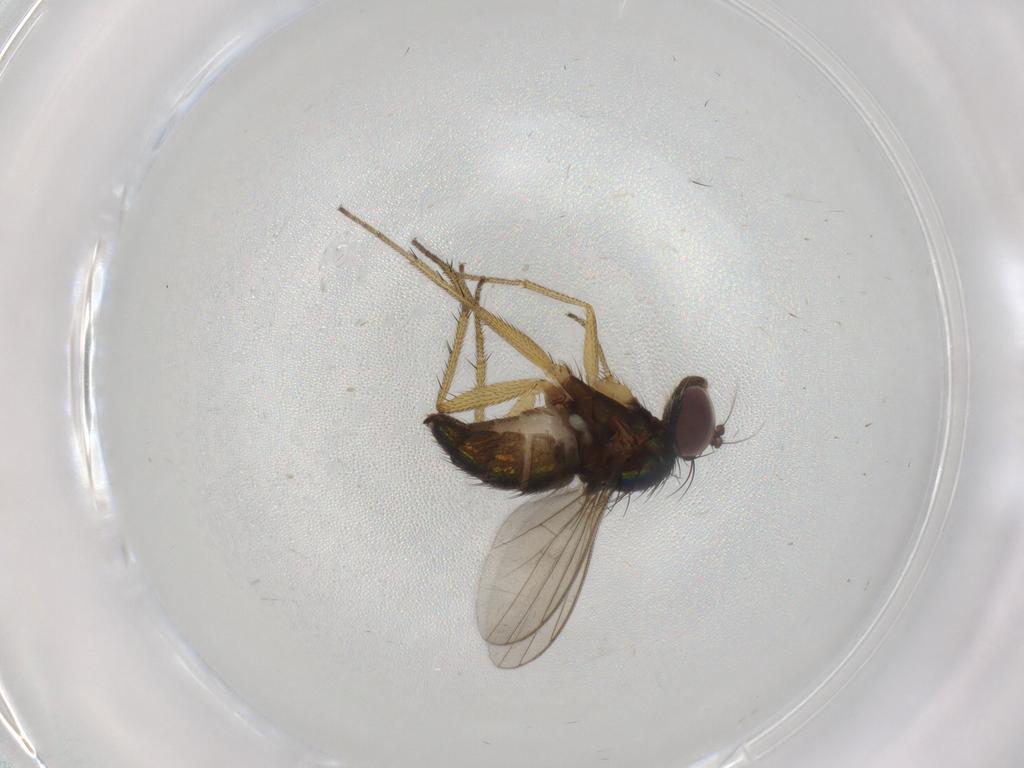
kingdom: Animalia
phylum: Arthropoda
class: Insecta
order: Diptera
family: Dolichopodidae
